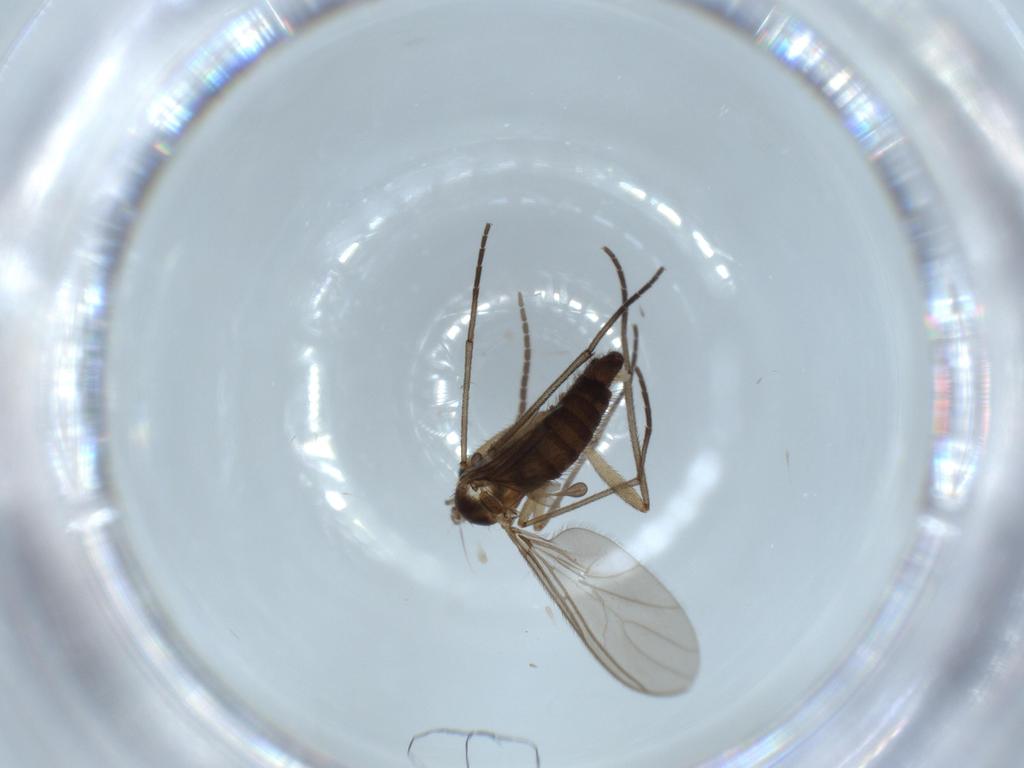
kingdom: Animalia
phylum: Arthropoda
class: Insecta
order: Diptera
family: Sciaridae
